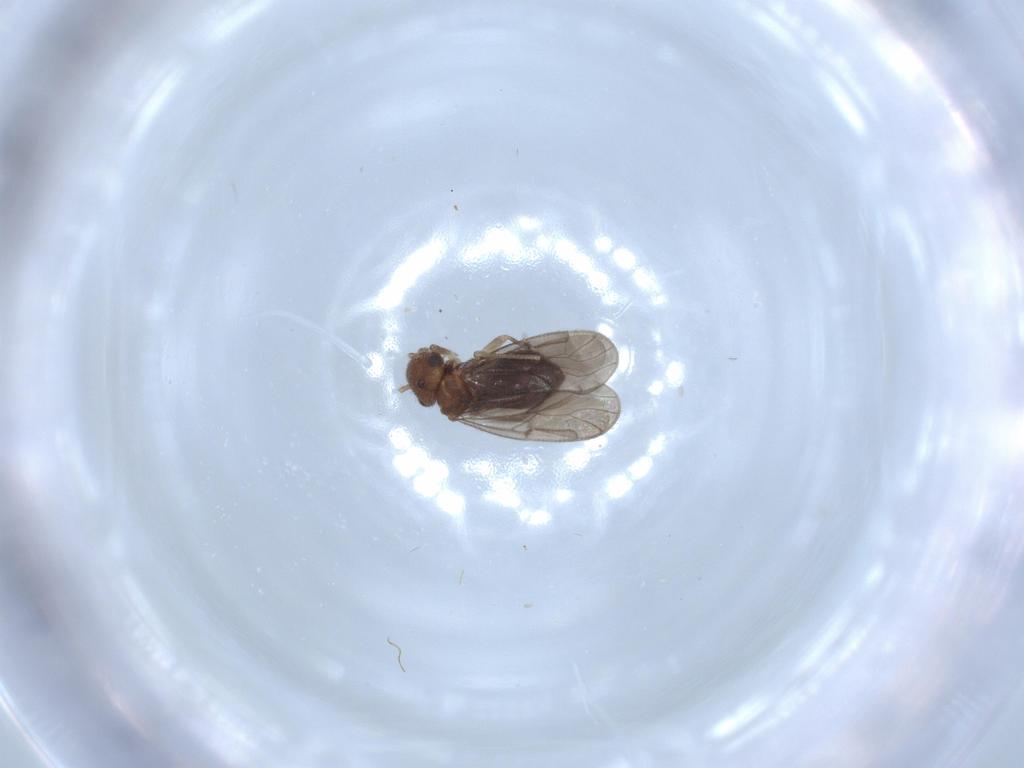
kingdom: Animalia
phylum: Arthropoda
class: Insecta
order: Psocodea
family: Ectopsocidae
